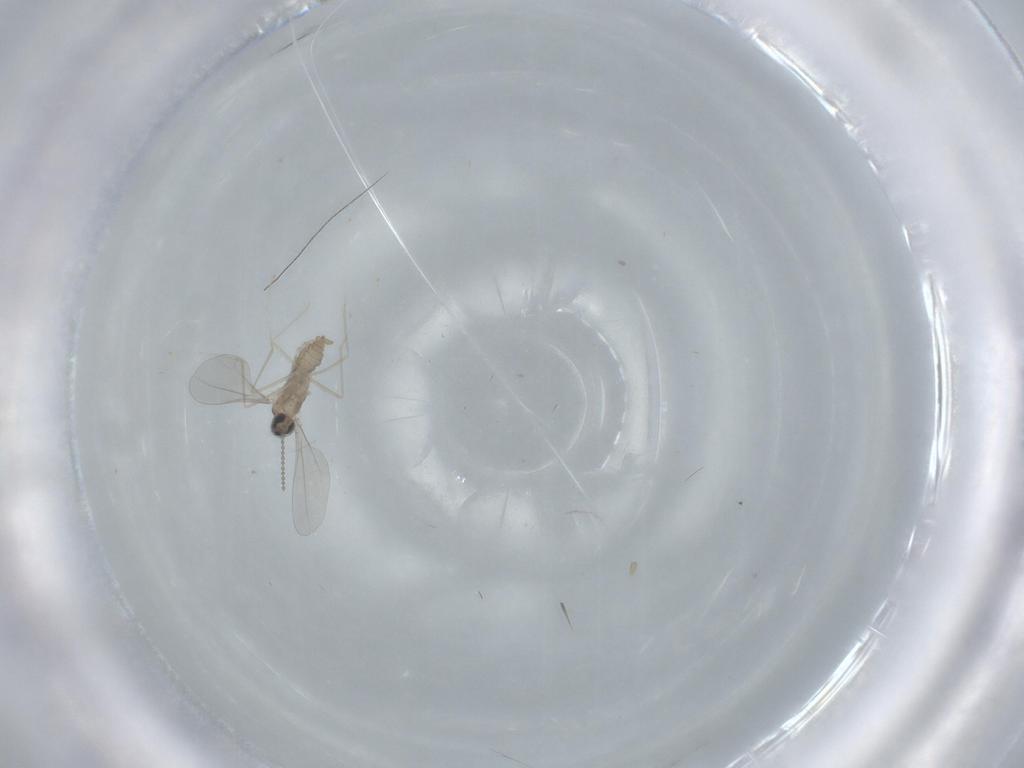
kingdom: Animalia
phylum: Arthropoda
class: Insecta
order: Diptera
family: Cecidomyiidae
